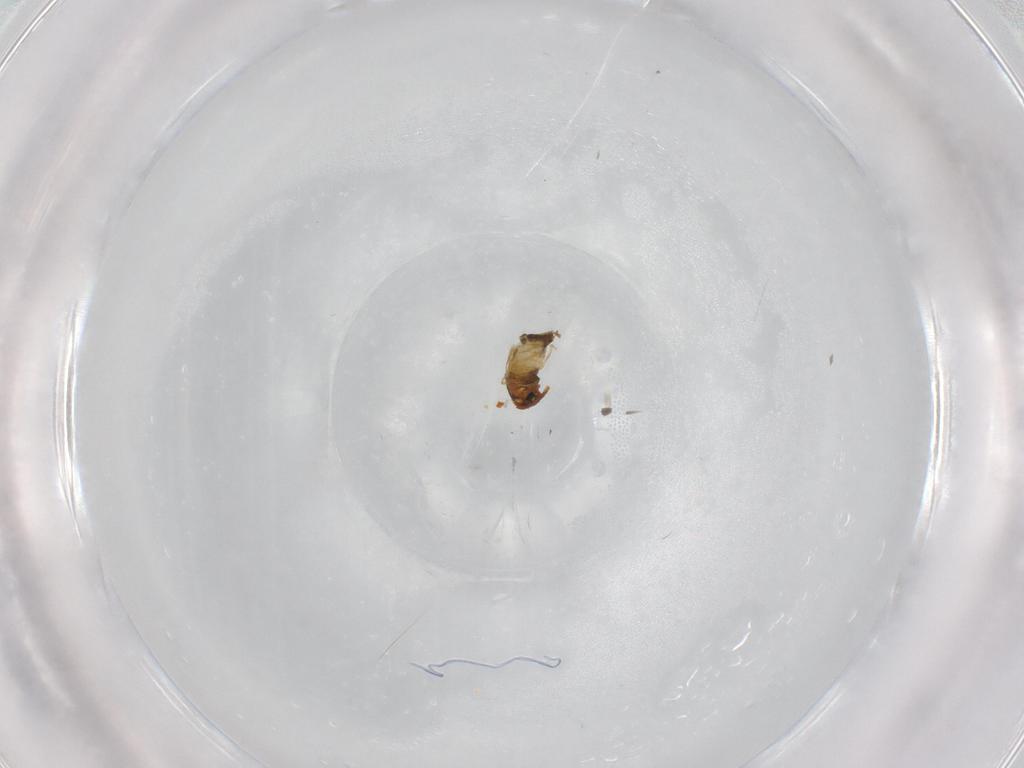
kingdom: Animalia
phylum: Arthropoda
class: Insecta
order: Diptera
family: Chironomidae
